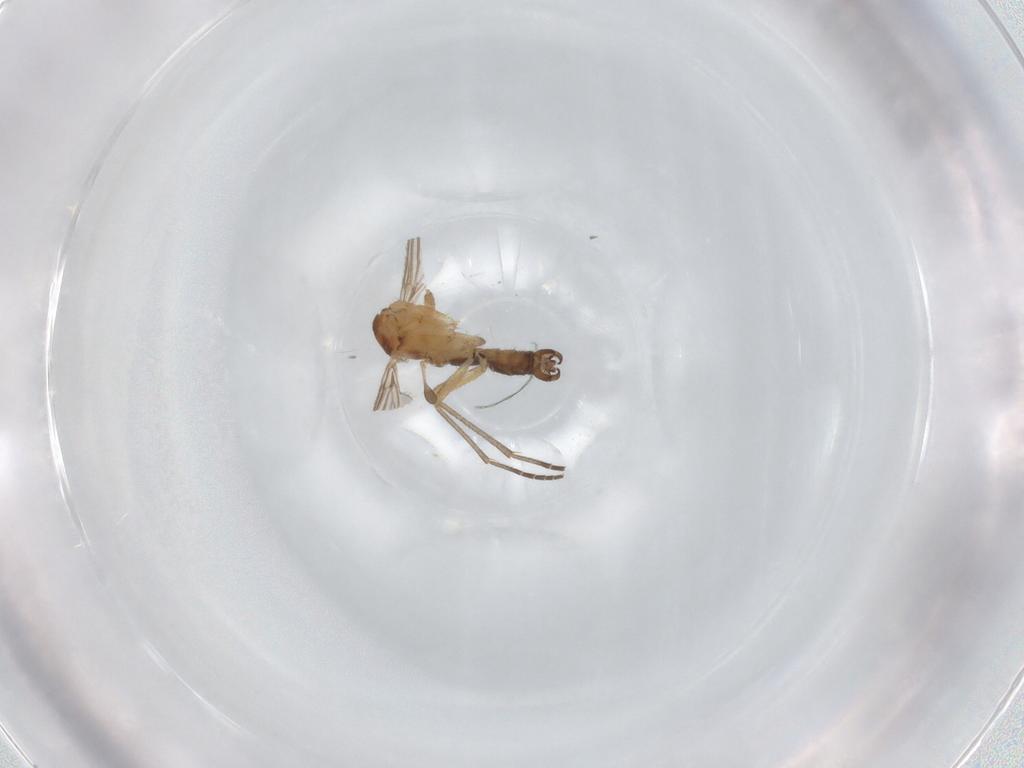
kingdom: Animalia
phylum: Arthropoda
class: Insecta
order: Diptera
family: Sciaridae
